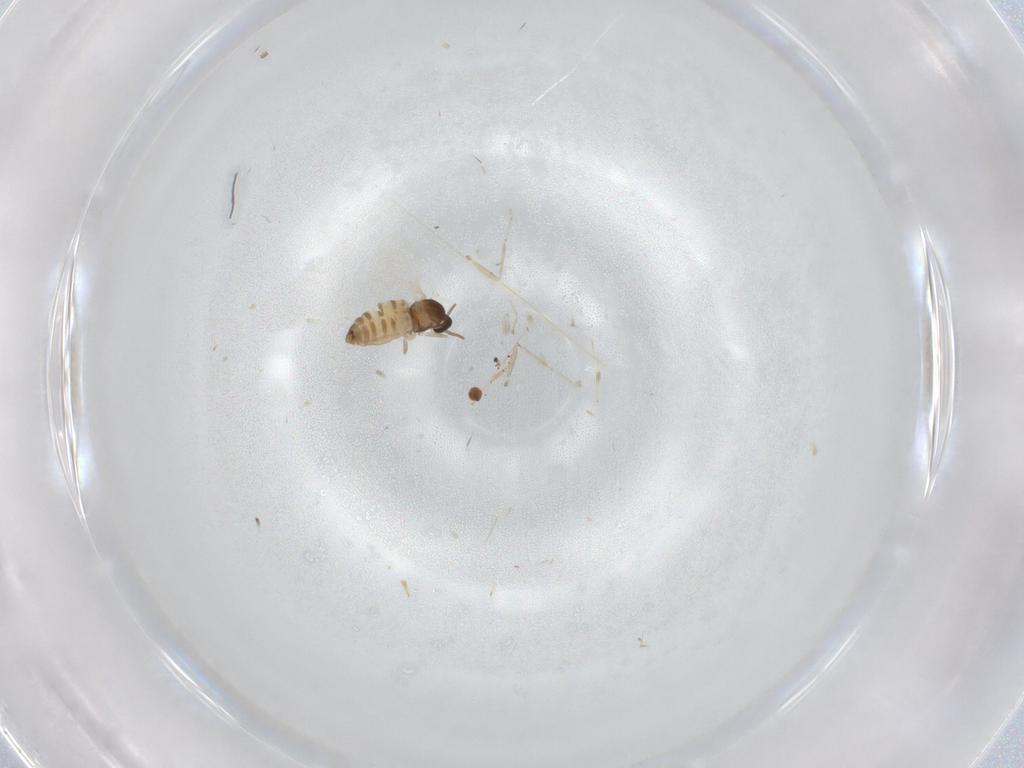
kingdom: Animalia
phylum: Arthropoda
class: Insecta
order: Diptera
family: Cecidomyiidae
